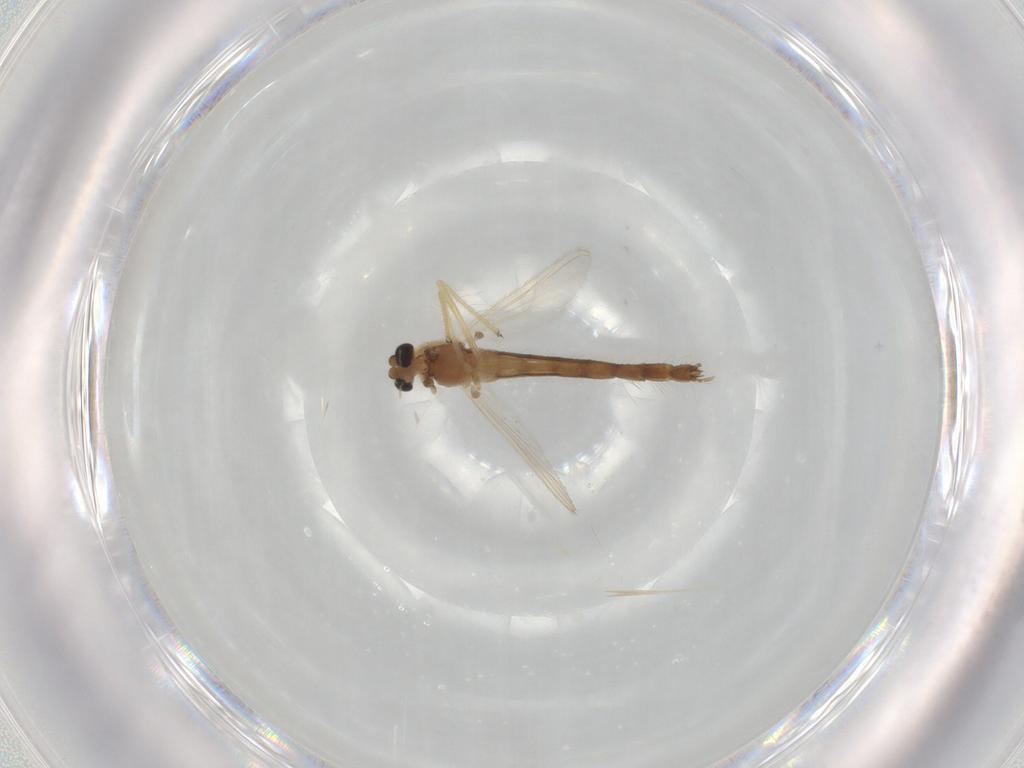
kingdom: Animalia
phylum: Arthropoda
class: Insecta
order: Diptera
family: Chironomidae
